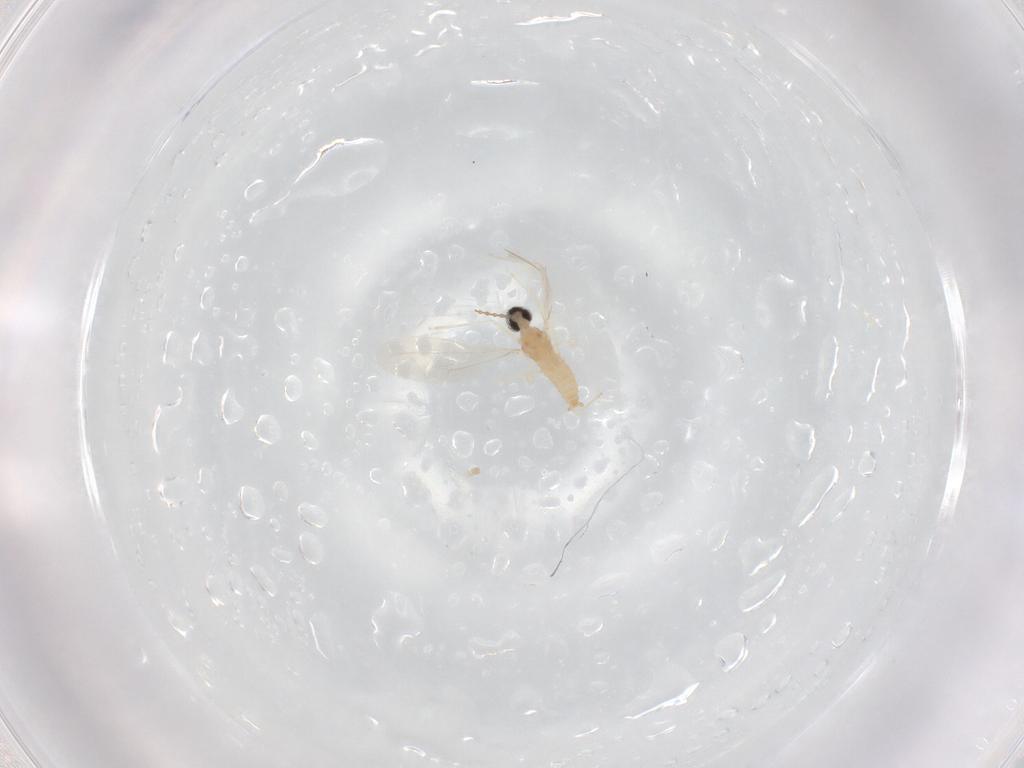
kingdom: Animalia
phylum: Arthropoda
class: Insecta
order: Diptera
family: Cecidomyiidae
